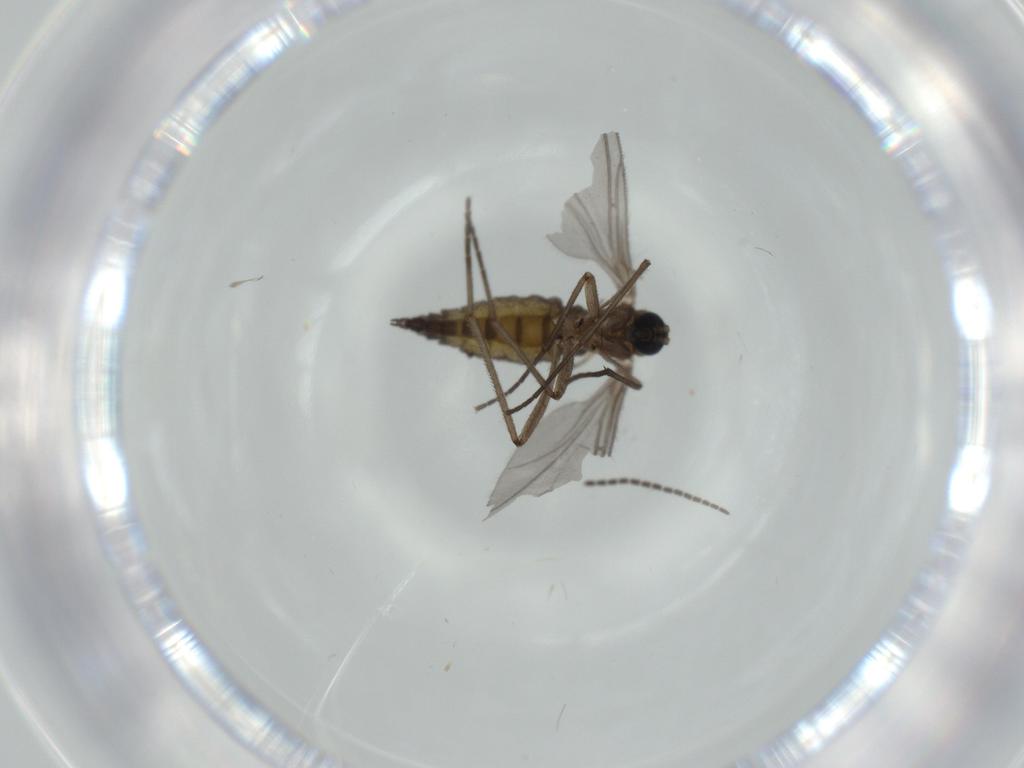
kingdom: Animalia
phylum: Arthropoda
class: Insecta
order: Diptera
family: Sciaridae
